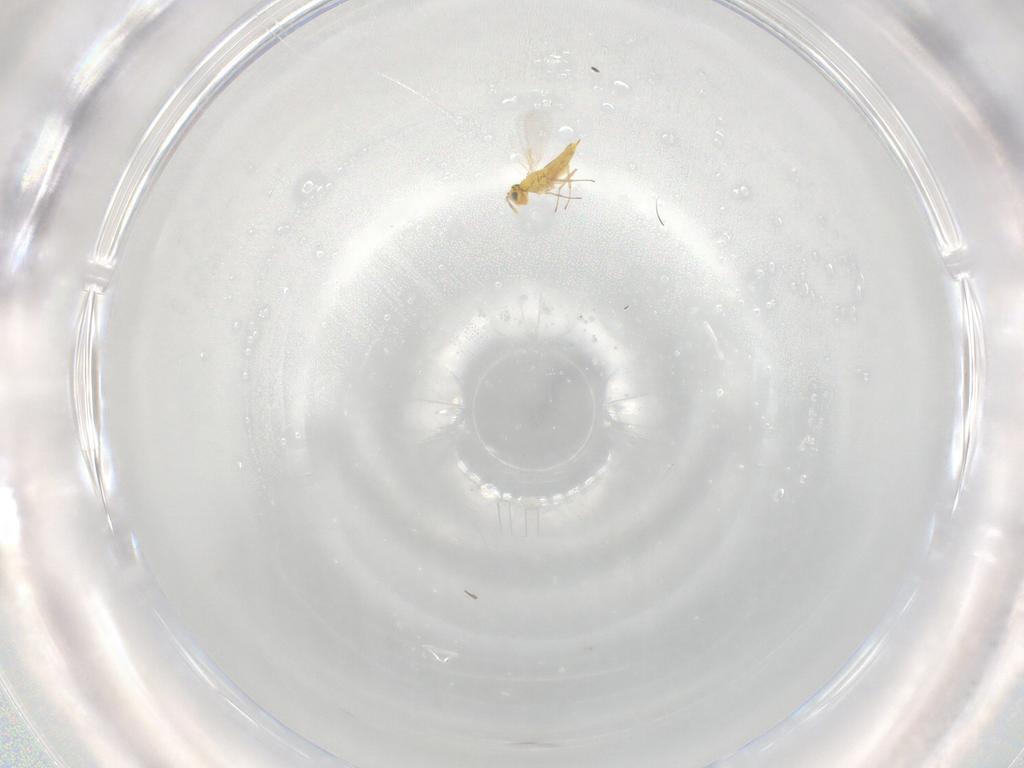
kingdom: Animalia
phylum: Arthropoda
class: Insecta
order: Hymenoptera
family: Aphelinidae
